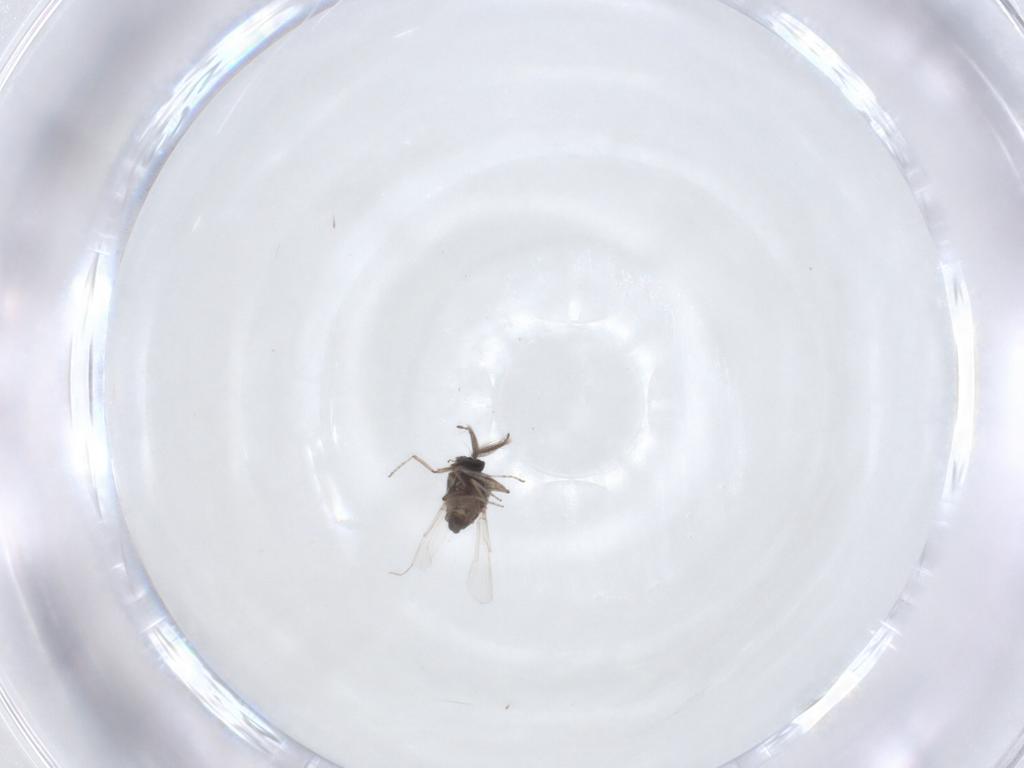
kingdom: Animalia
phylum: Arthropoda
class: Insecta
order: Diptera
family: Ceratopogonidae
